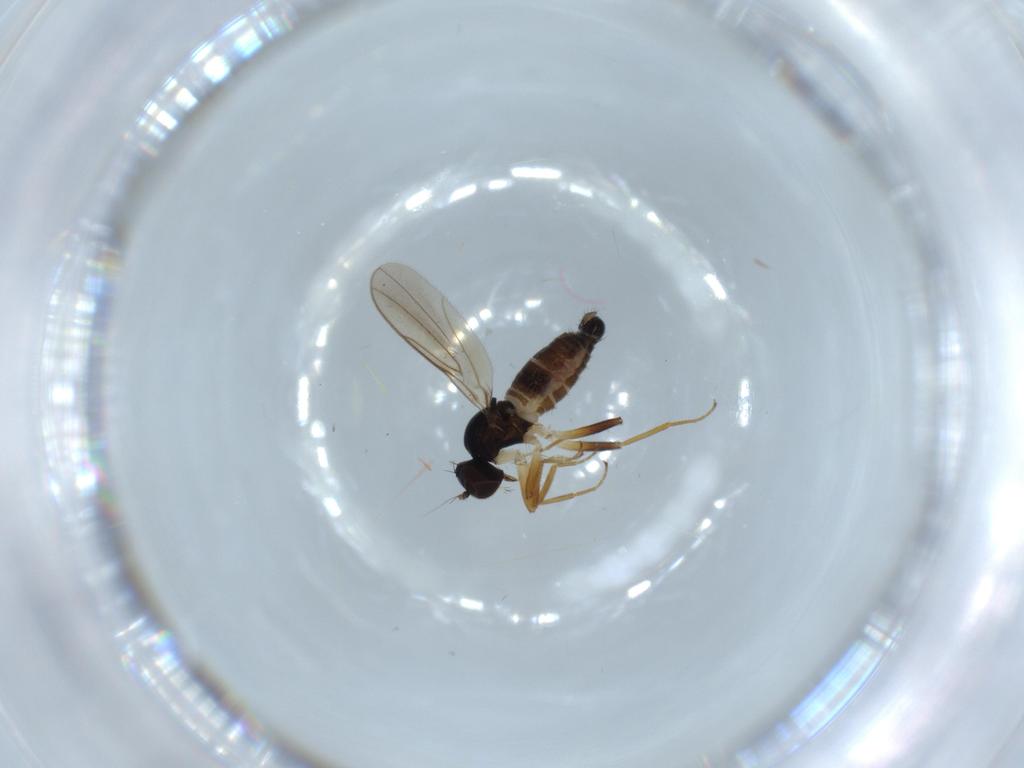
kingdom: Animalia
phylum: Arthropoda
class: Insecta
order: Diptera
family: Hybotidae
